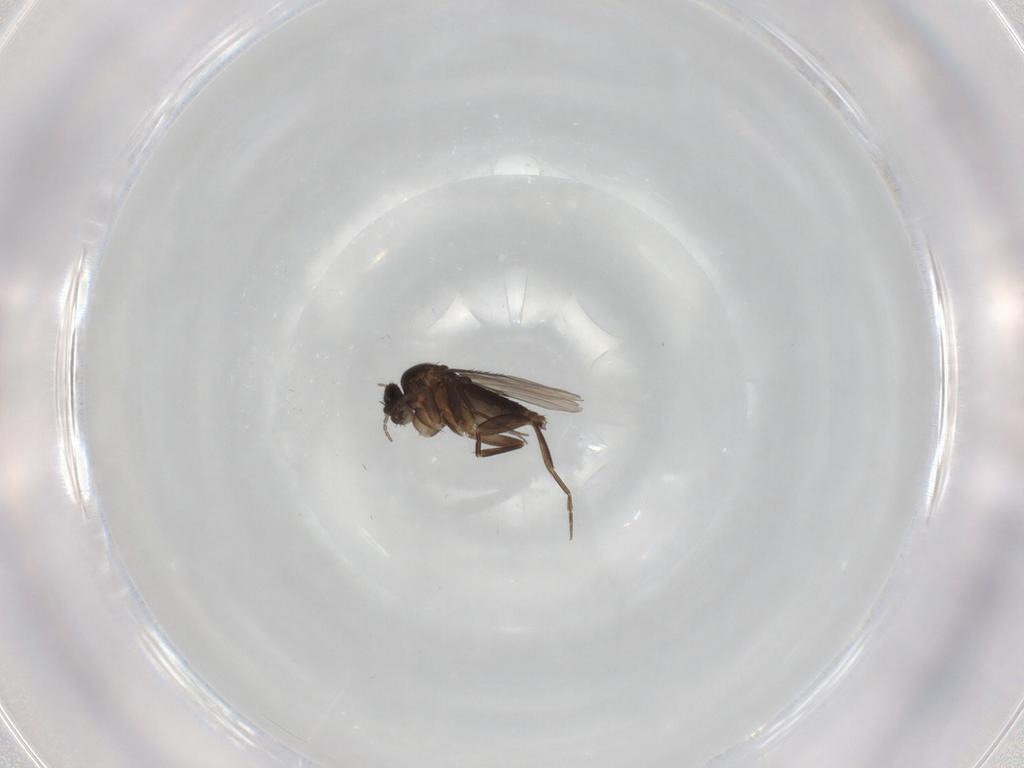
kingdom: Animalia
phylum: Arthropoda
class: Insecta
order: Diptera
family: Phoridae
